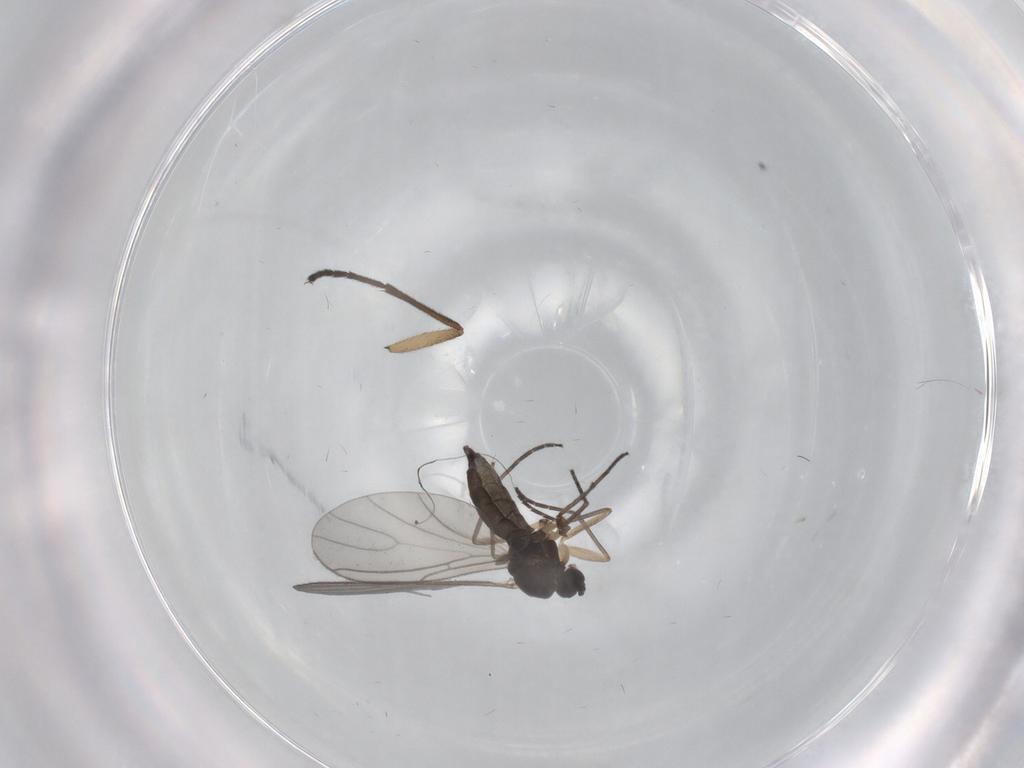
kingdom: Animalia
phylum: Arthropoda
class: Insecta
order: Diptera
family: Sciaridae
